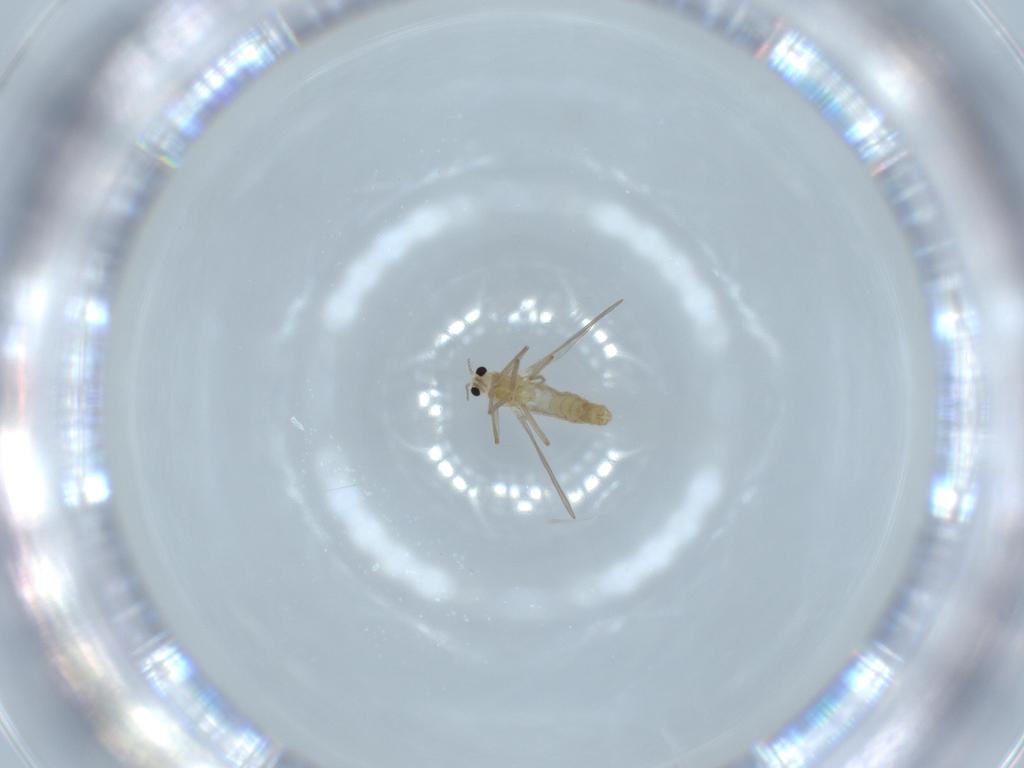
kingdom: Animalia
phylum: Arthropoda
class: Insecta
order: Diptera
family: Chironomidae
